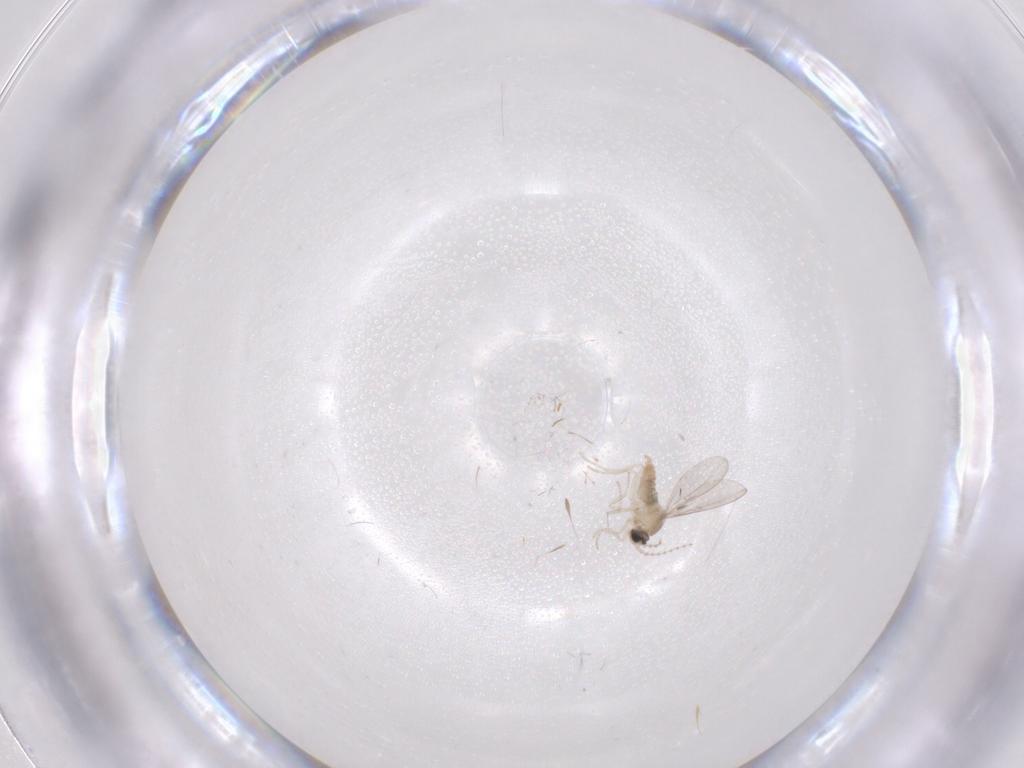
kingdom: Animalia
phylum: Arthropoda
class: Insecta
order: Diptera
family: Cecidomyiidae
